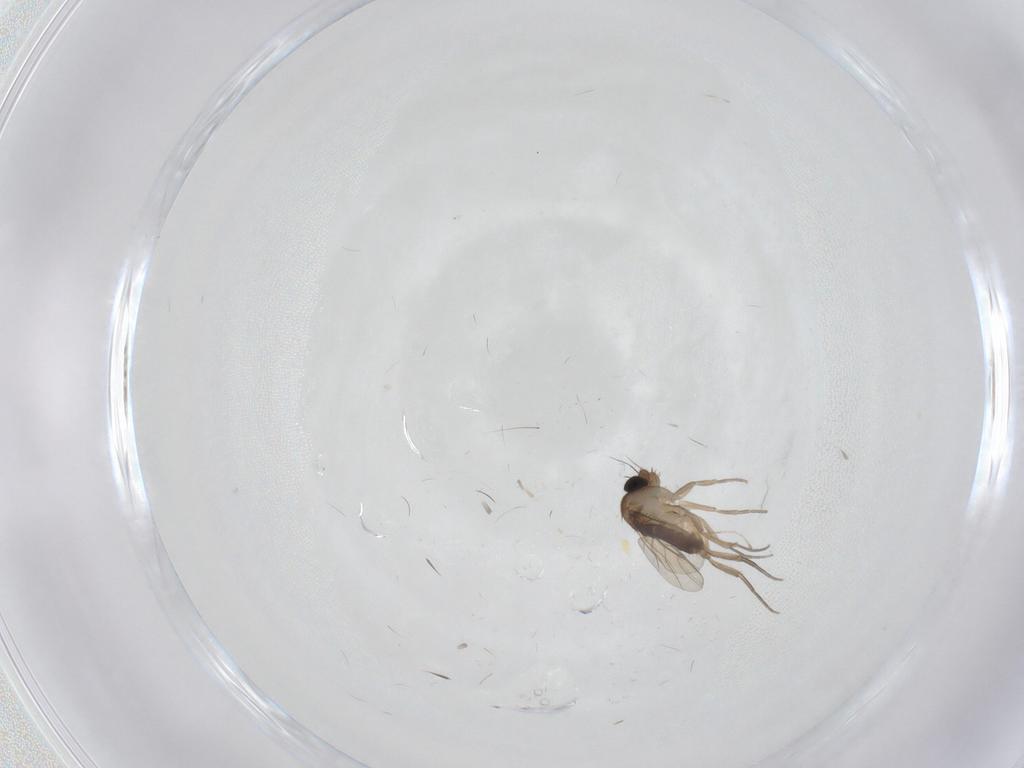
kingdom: Animalia
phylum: Arthropoda
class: Insecta
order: Diptera
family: Phoridae
